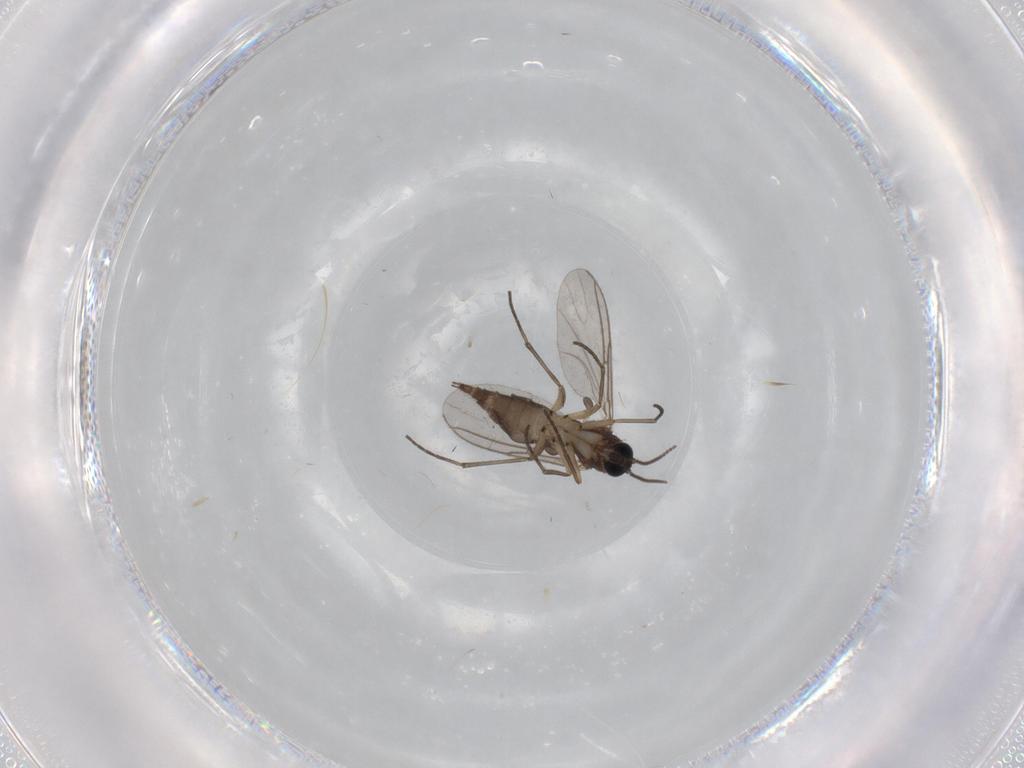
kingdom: Animalia
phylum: Arthropoda
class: Insecta
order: Diptera
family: Sciaridae
